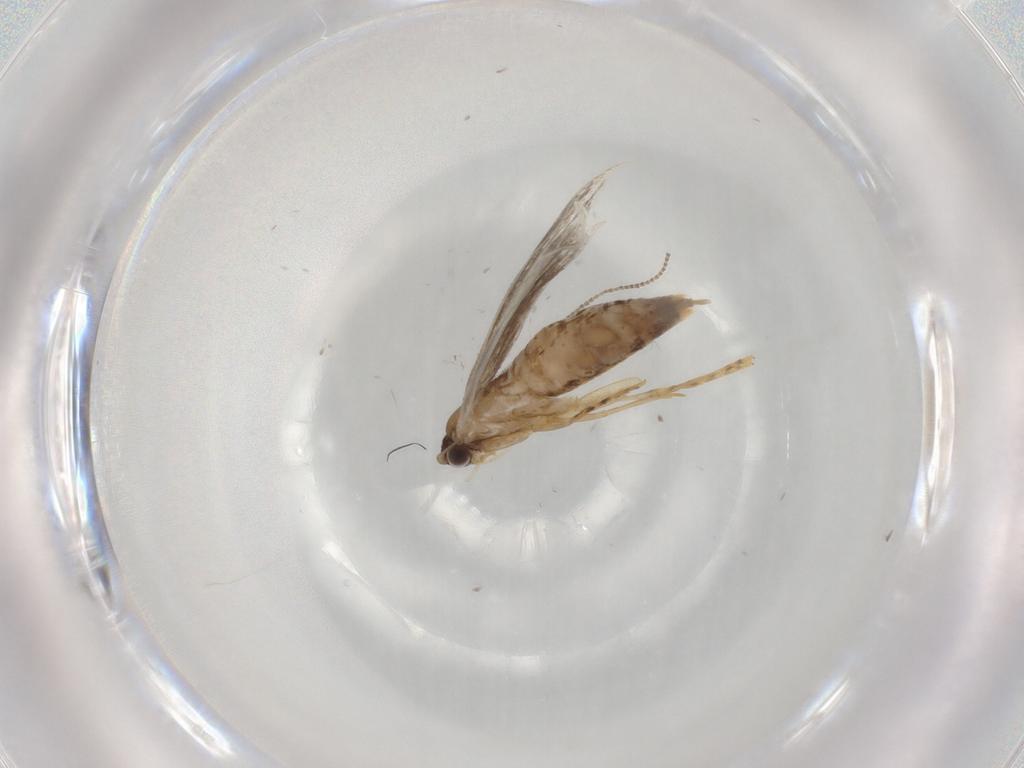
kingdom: Animalia
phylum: Arthropoda
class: Insecta
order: Lepidoptera
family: Tineidae
